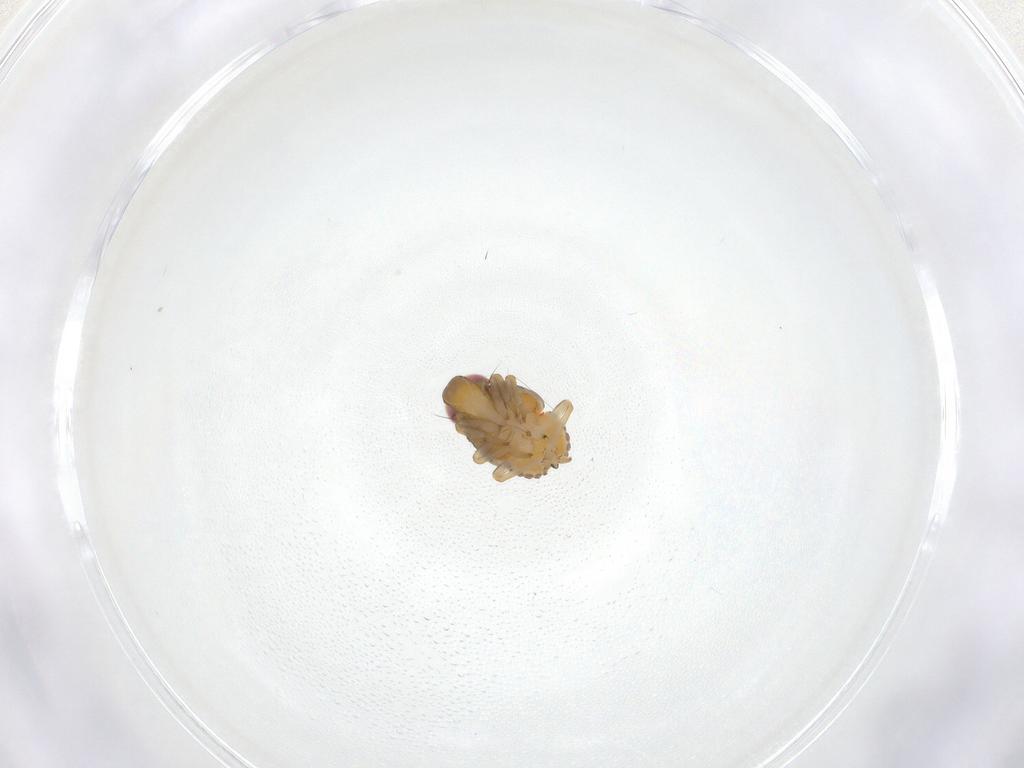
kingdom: Animalia
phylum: Arthropoda
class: Insecta
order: Hemiptera
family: Issidae
